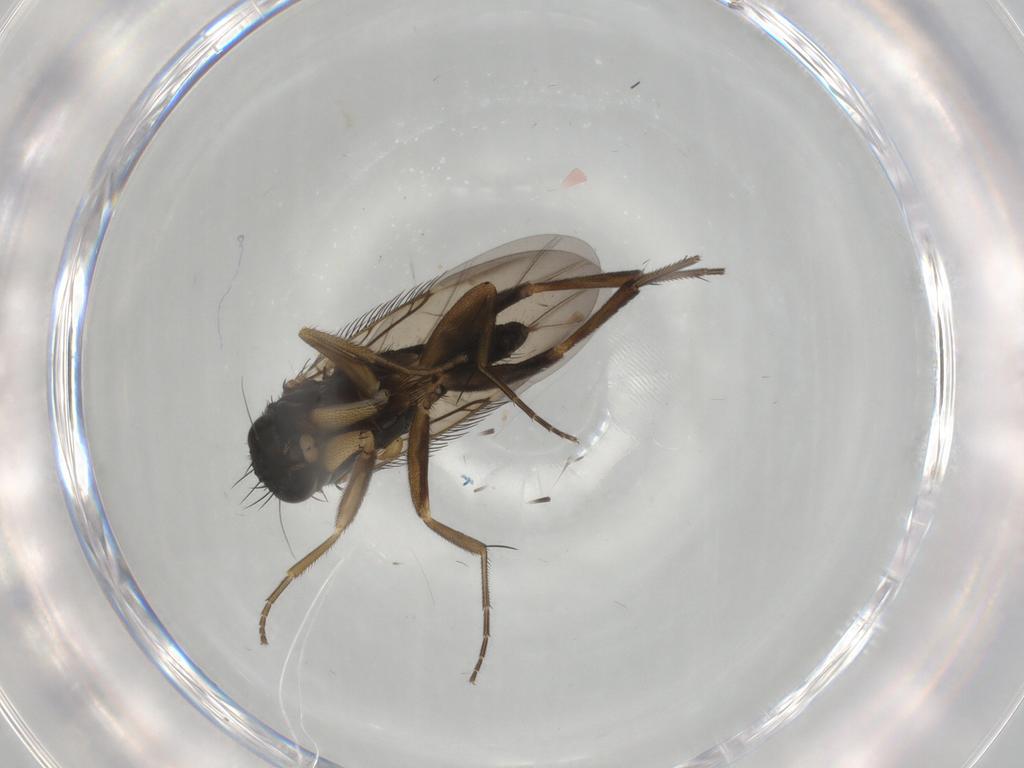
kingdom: Animalia
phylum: Arthropoda
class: Insecta
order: Diptera
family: Phoridae
